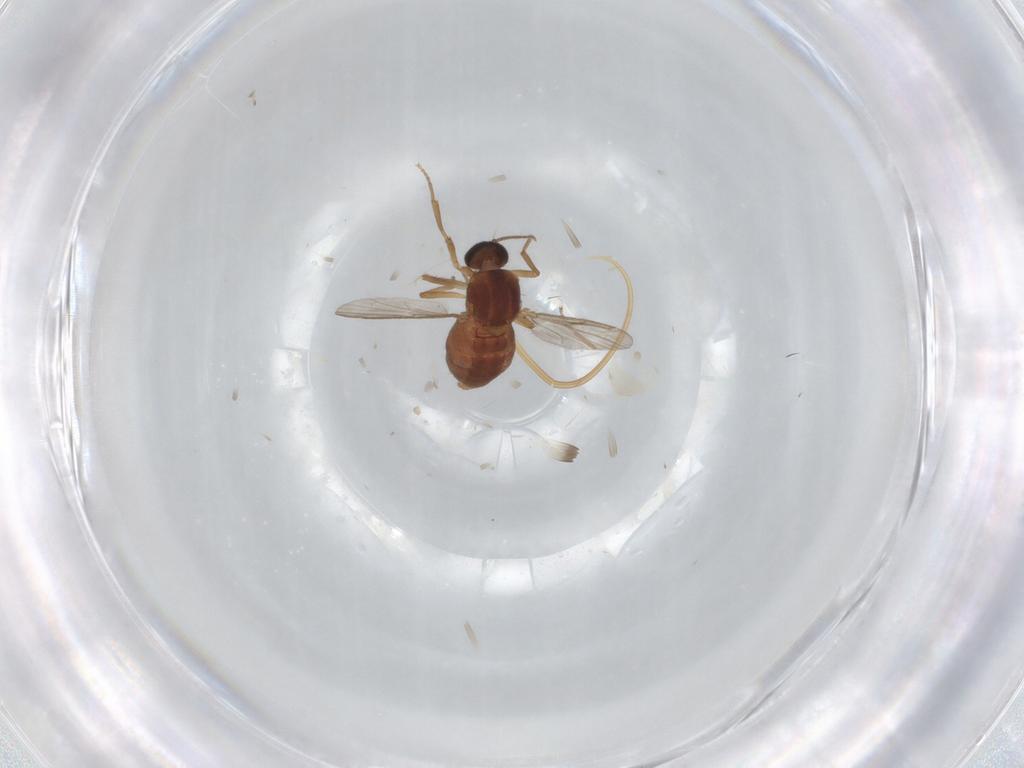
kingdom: Animalia
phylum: Arthropoda
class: Insecta
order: Diptera
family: Ceratopogonidae
